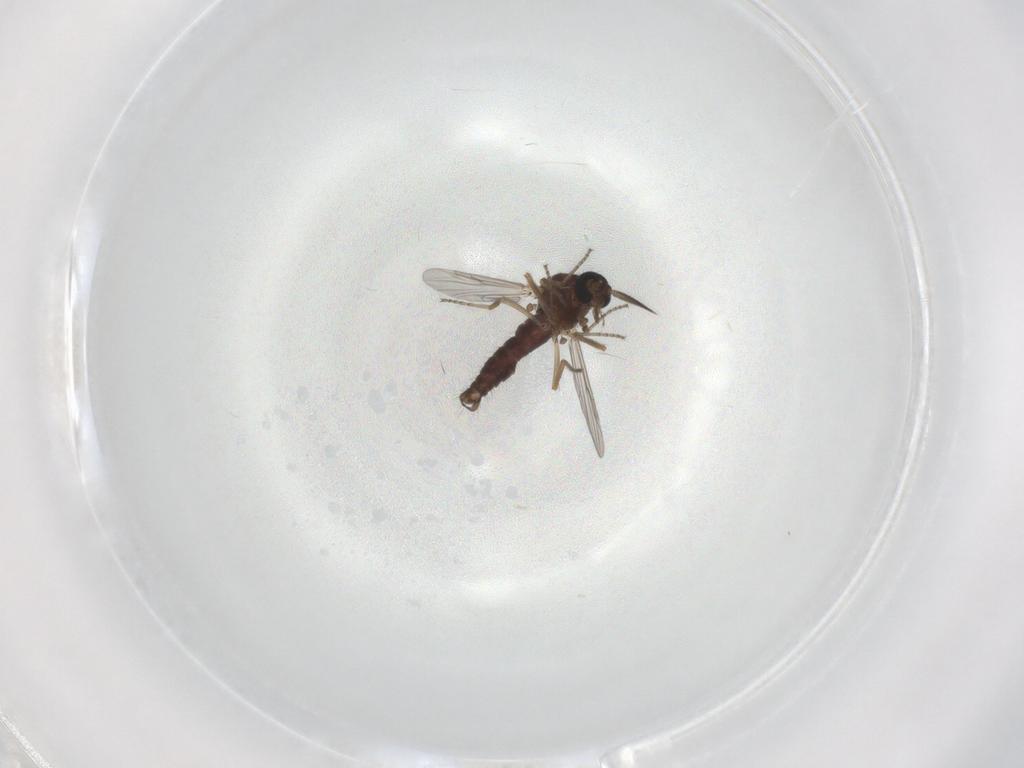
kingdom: Animalia
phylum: Arthropoda
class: Insecta
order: Diptera
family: Ceratopogonidae
